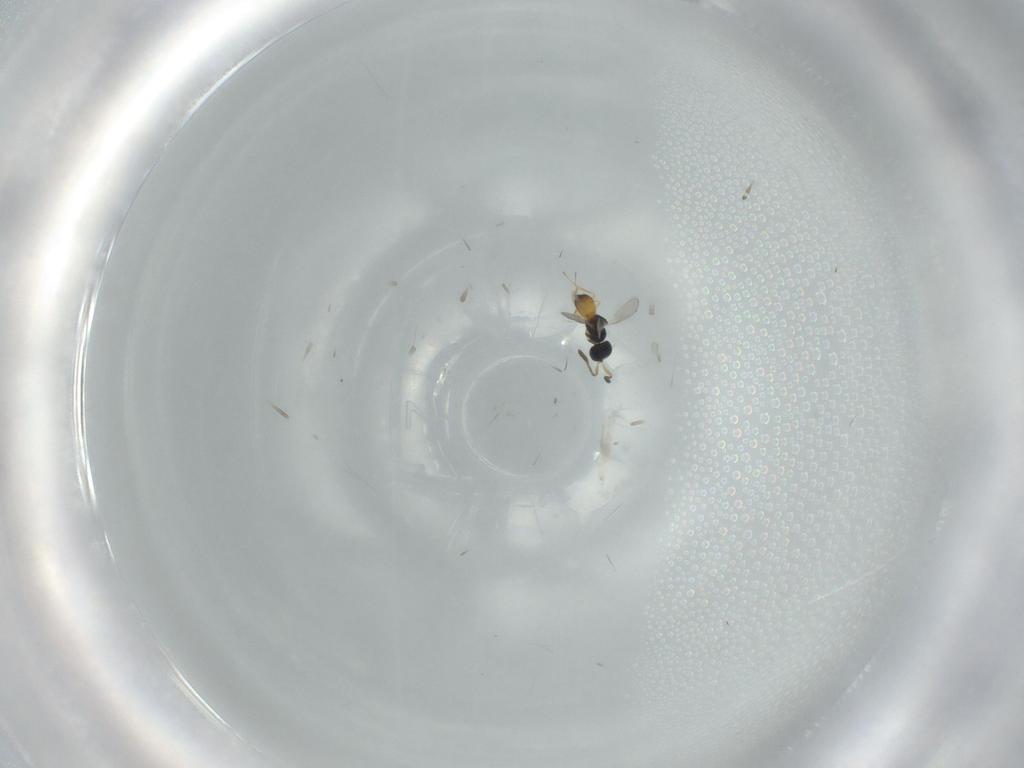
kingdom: Animalia
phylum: Arthropoda
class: Insecta
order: Hymenoptera
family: Scelionidae
